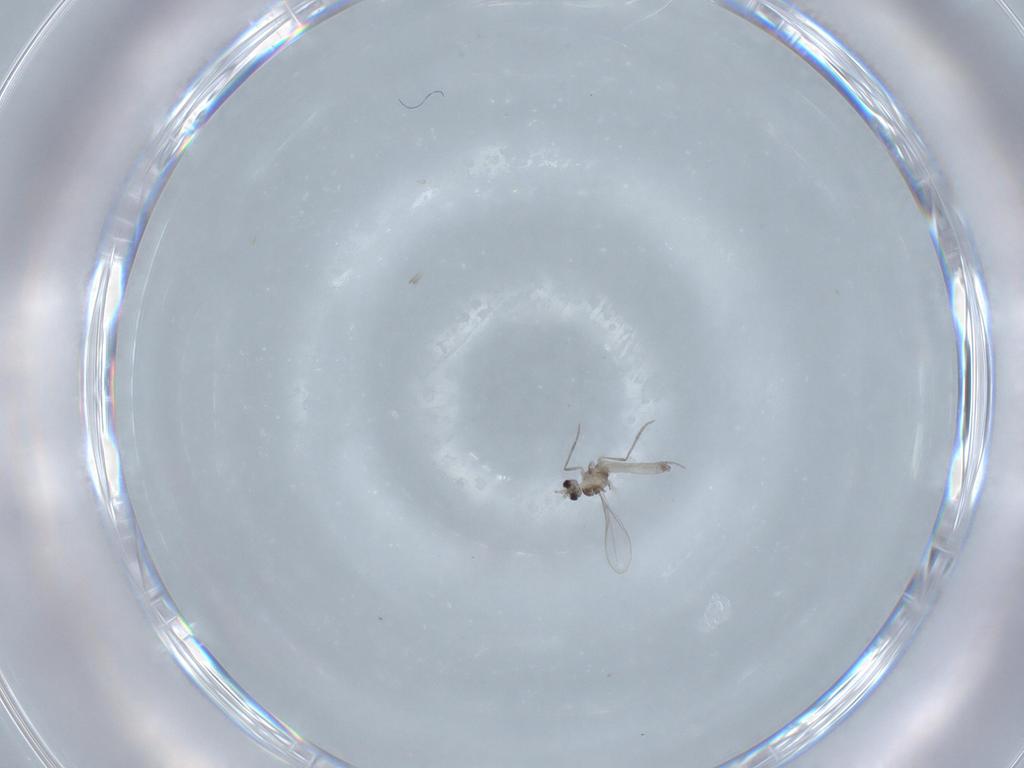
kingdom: Animalia
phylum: Arthropoda
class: Insecta
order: Diptera
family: Cecidomyiidae
